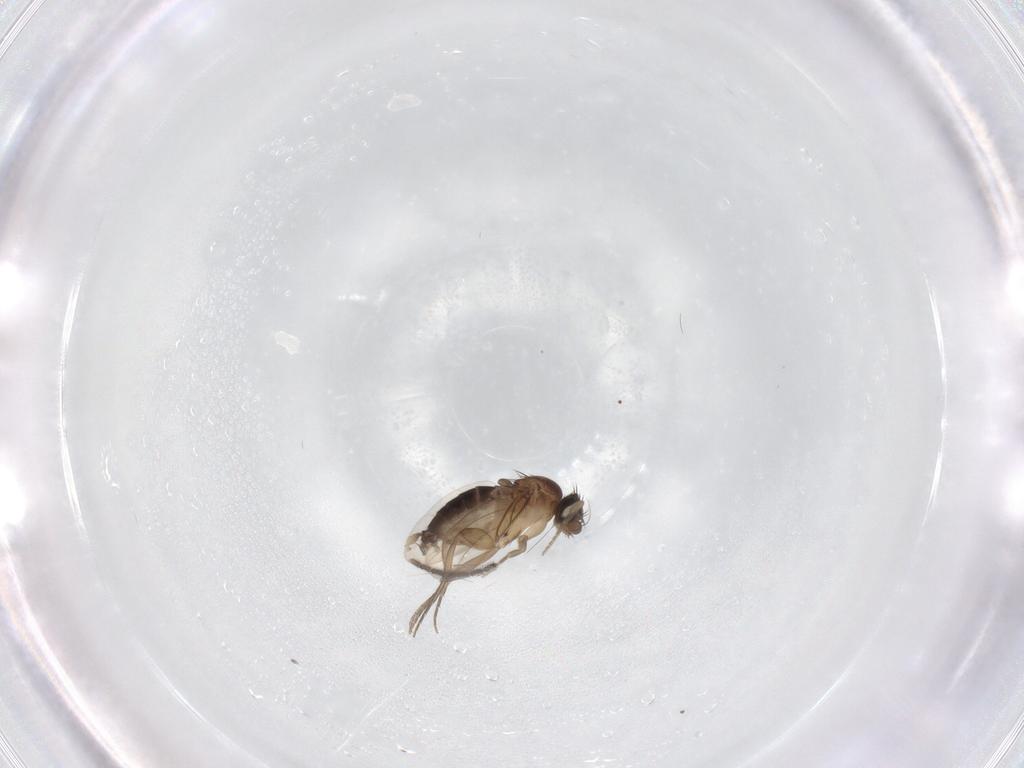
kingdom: Animalia
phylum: Arthropoda
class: Insecta
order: Diptera
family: Phoridae
